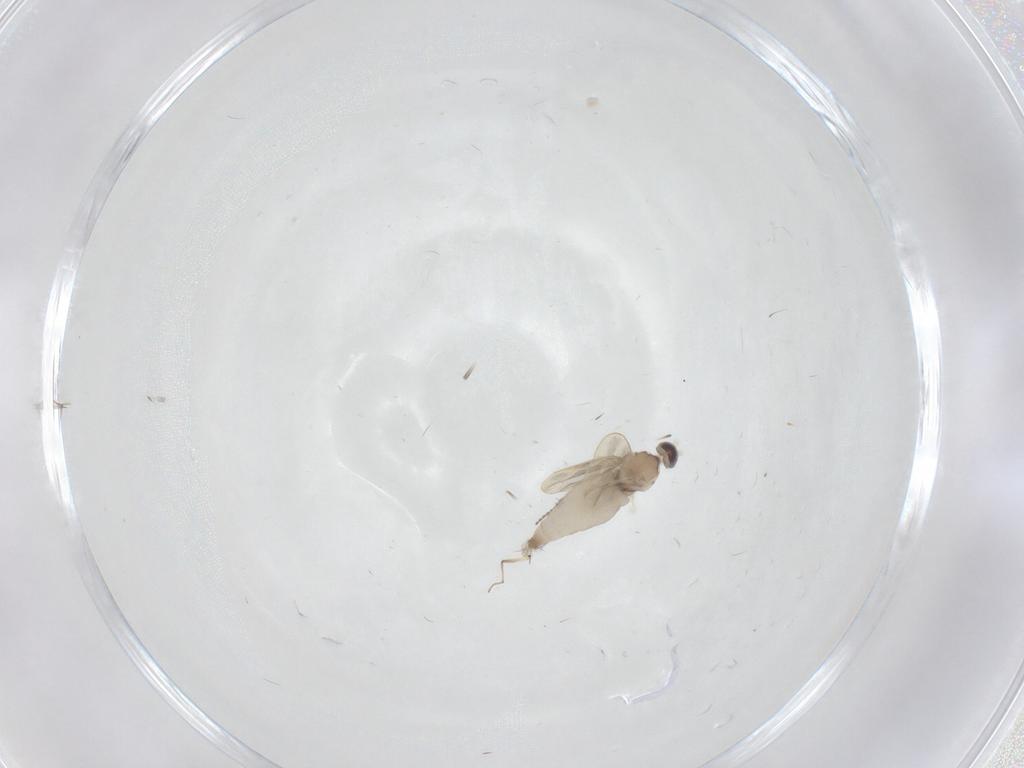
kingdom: Animalia
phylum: Arthropoda
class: Insecta
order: Diptera
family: Cecidomyiidae
